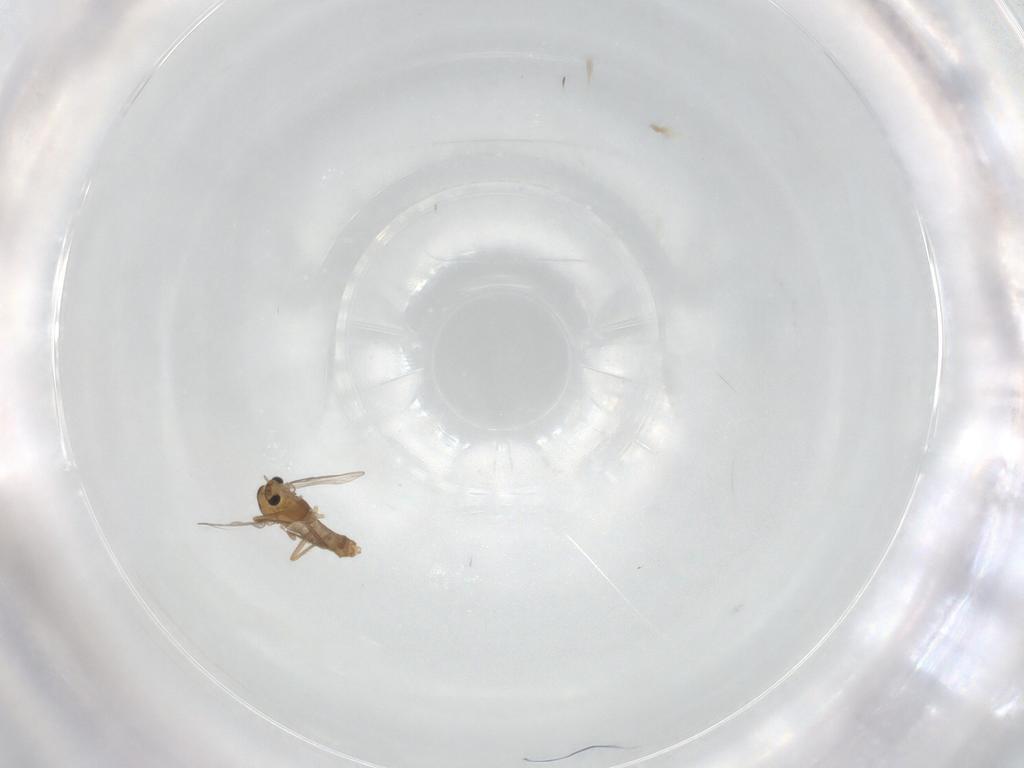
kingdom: Animalia
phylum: Arthropoda
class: Insecta
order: Diptera
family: Chironomidae
